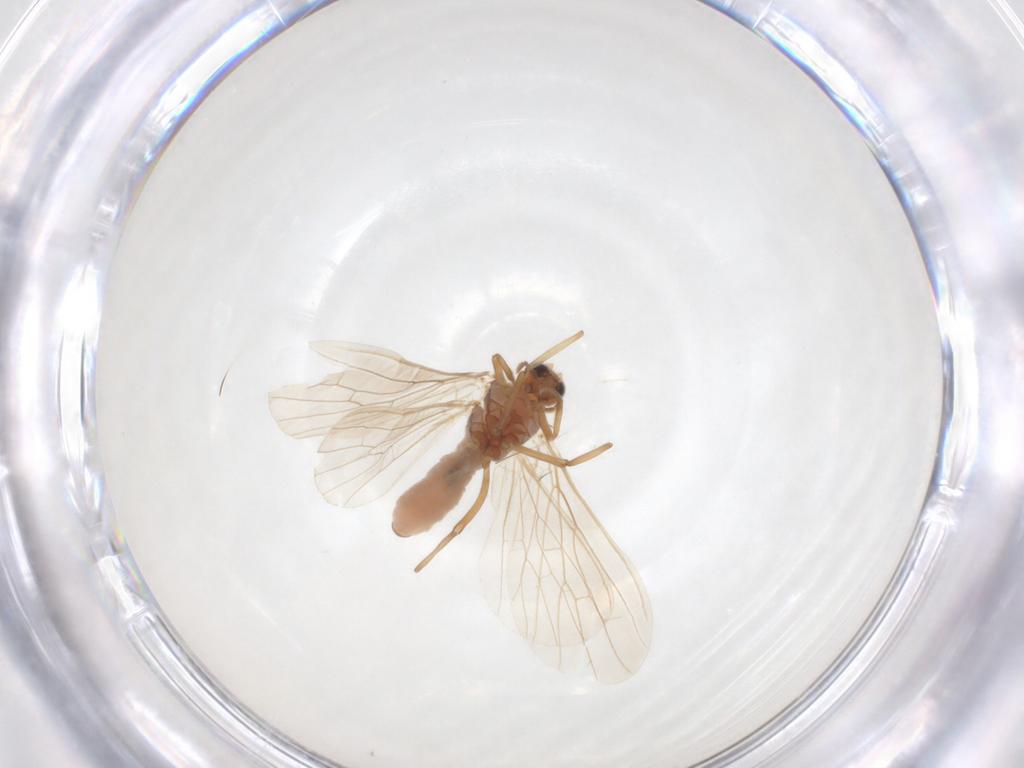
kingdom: Animalia
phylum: Arthropoda
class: Insecta
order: Neuroptera
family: Coniopterygidae
